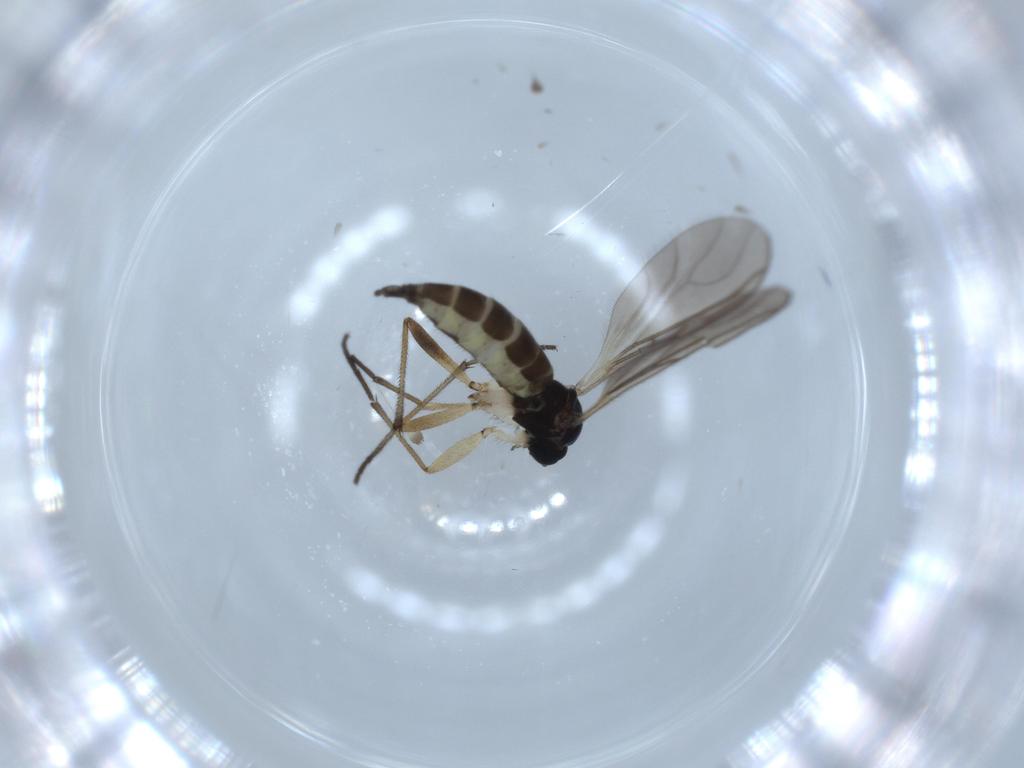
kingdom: Animalia
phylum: Arthropoda
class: Insecta
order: Diptera
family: Sciaridae
